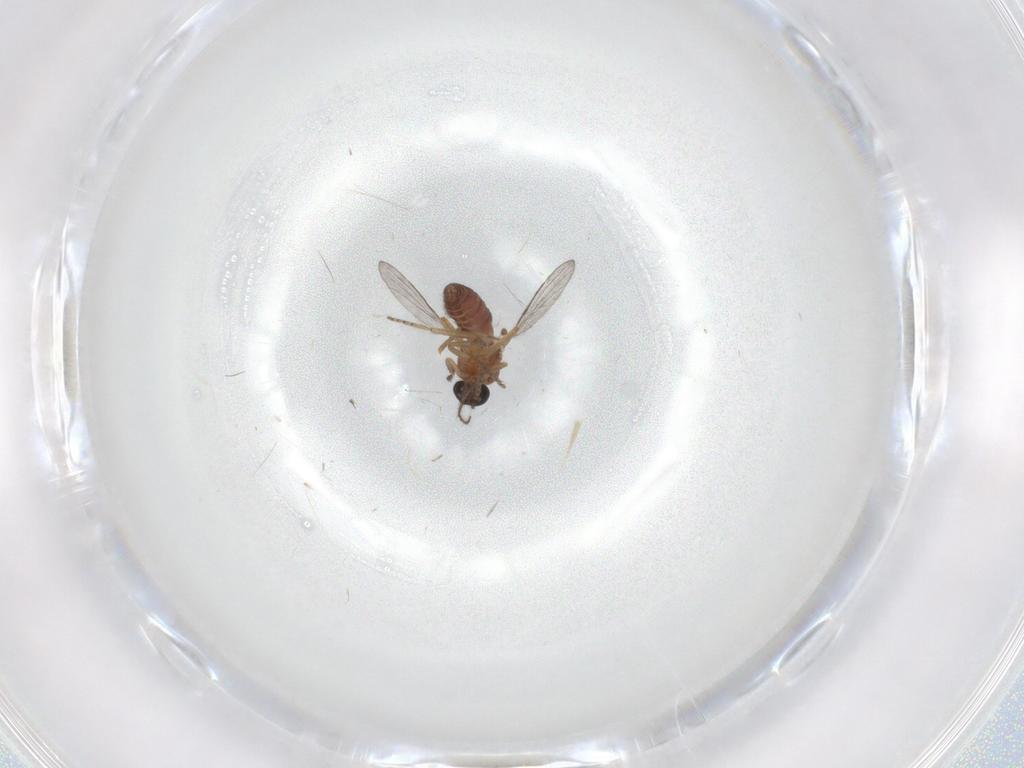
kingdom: Animalia
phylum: Arthropoda
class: Insecta
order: Diptera
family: Ceratopogonidae
